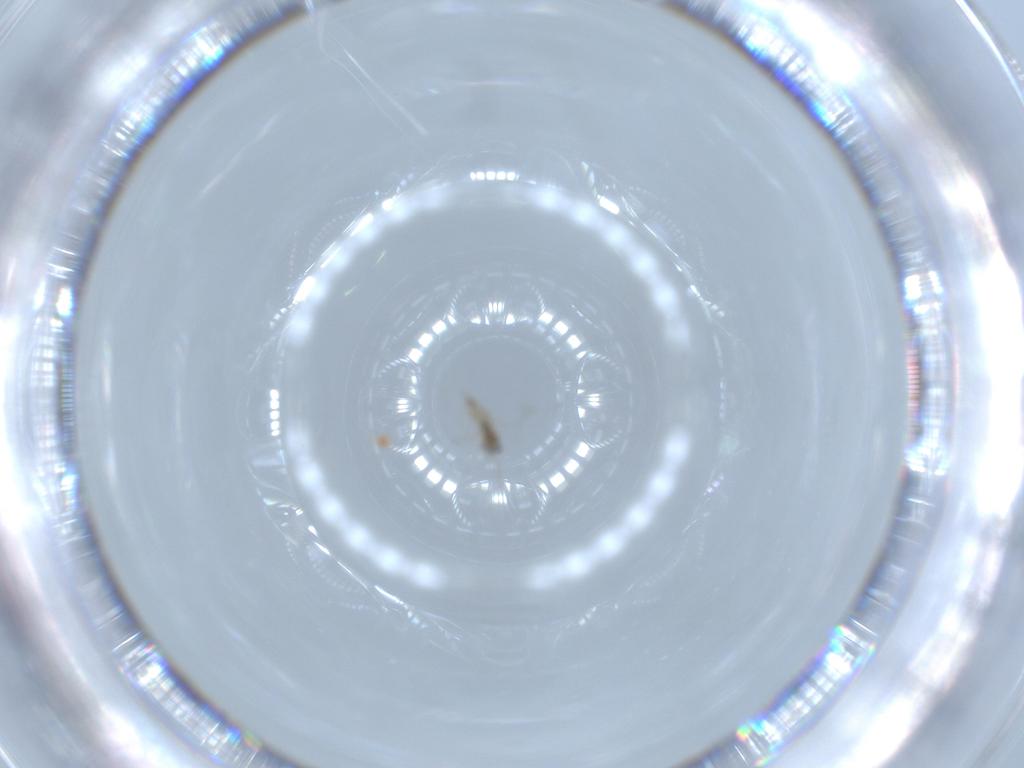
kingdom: Animalia
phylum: Arthropoda
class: Insecta
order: Diptera
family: Cecidomyiidae
